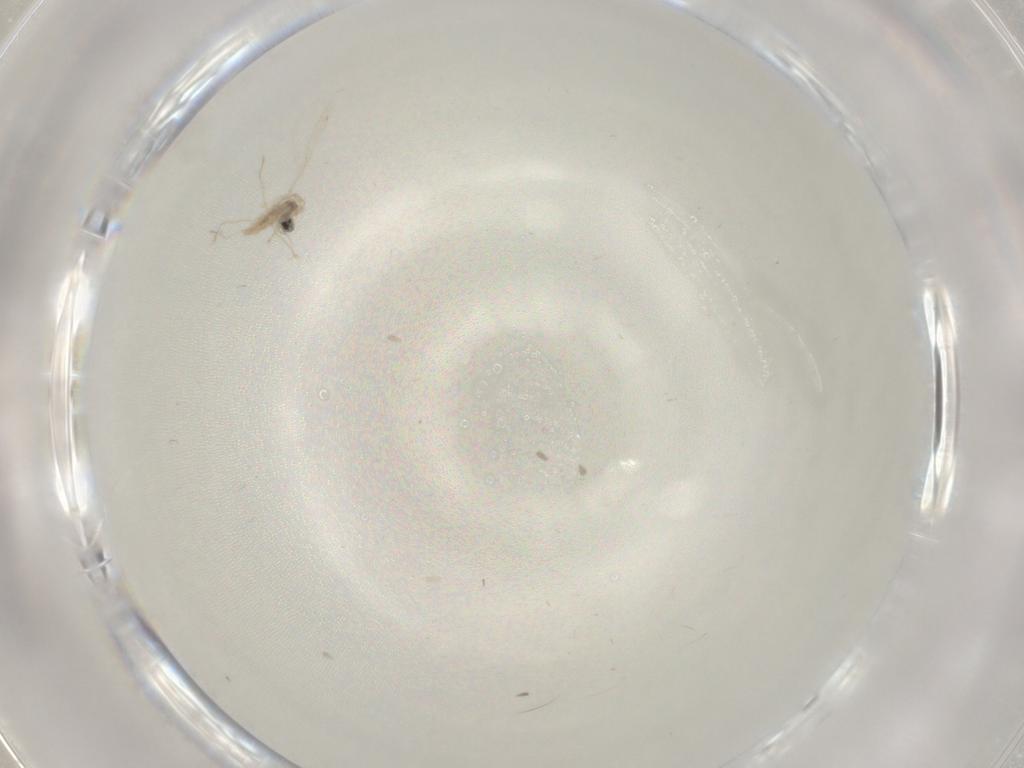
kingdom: Animalia
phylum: Arthropoda
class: Insecta
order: Diptera
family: Cecidomyiidae
